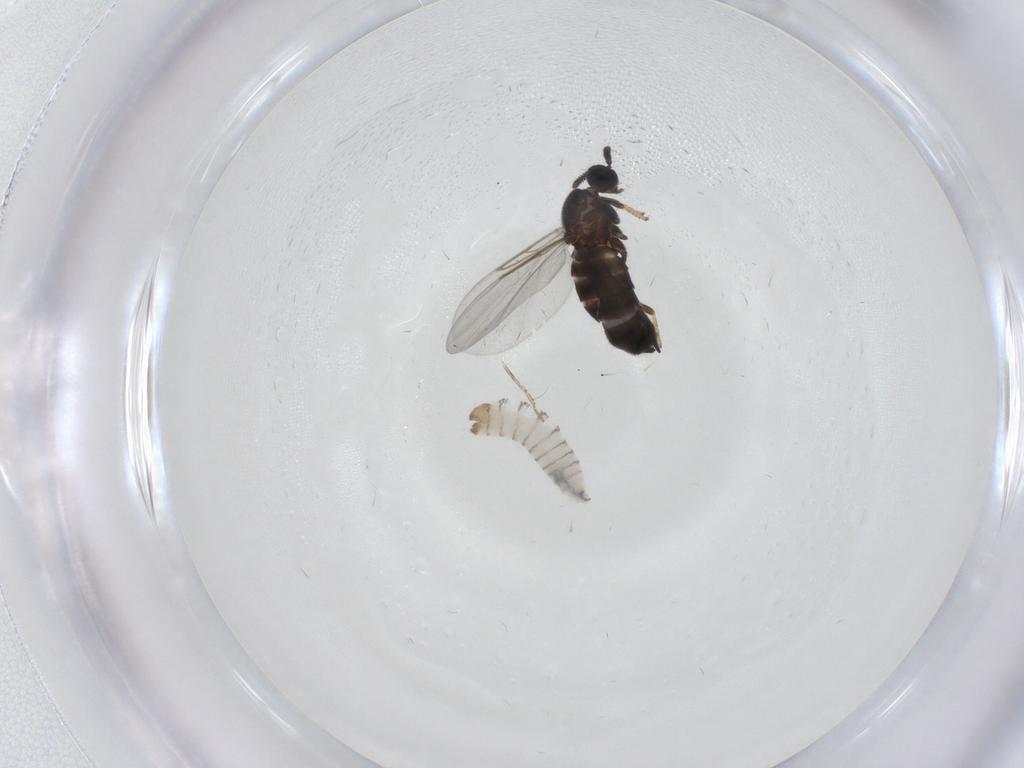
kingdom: Animalia
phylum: Arthropoda
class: Insecta
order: Diptera
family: Scatopsidae
